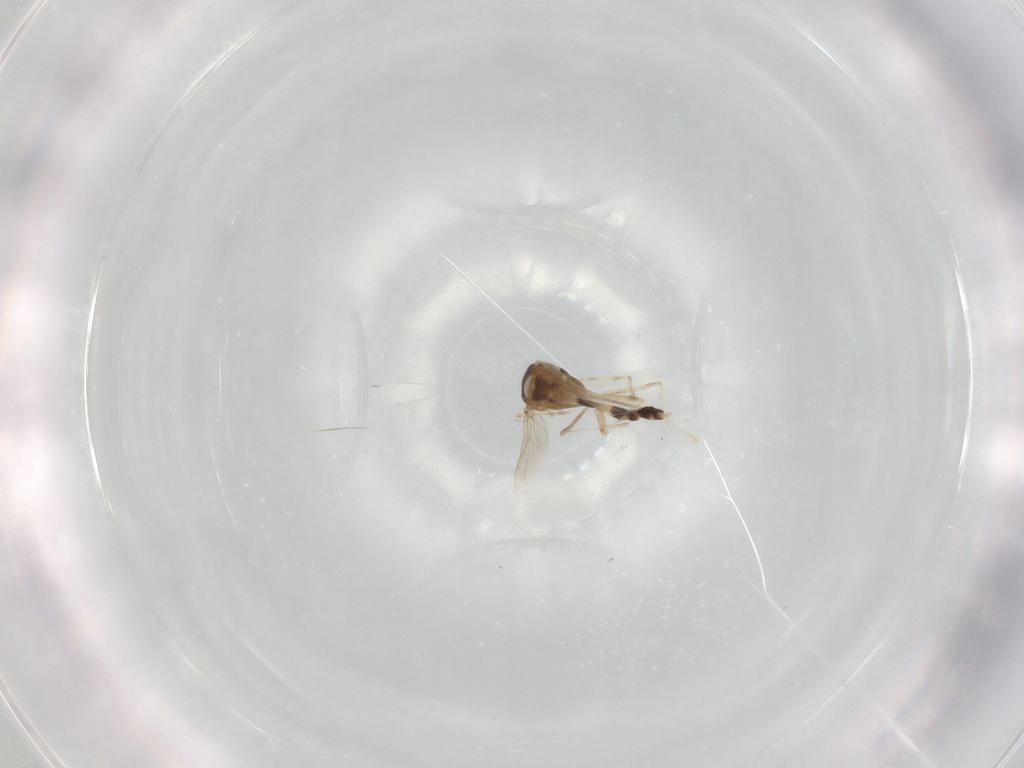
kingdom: Animalia
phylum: Arthropoda
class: Insecta
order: Diptera
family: Chironomidae
